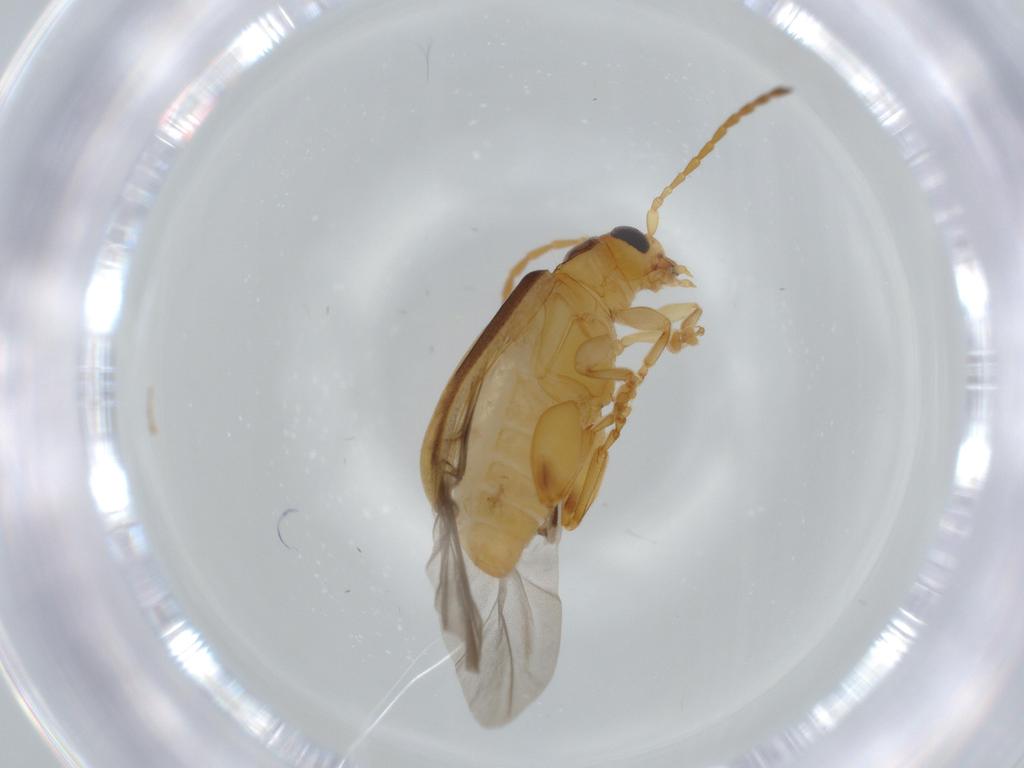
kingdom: Animalia
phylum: Arthropoda
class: Insecta
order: Coleoptera
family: Chrysomelidae
